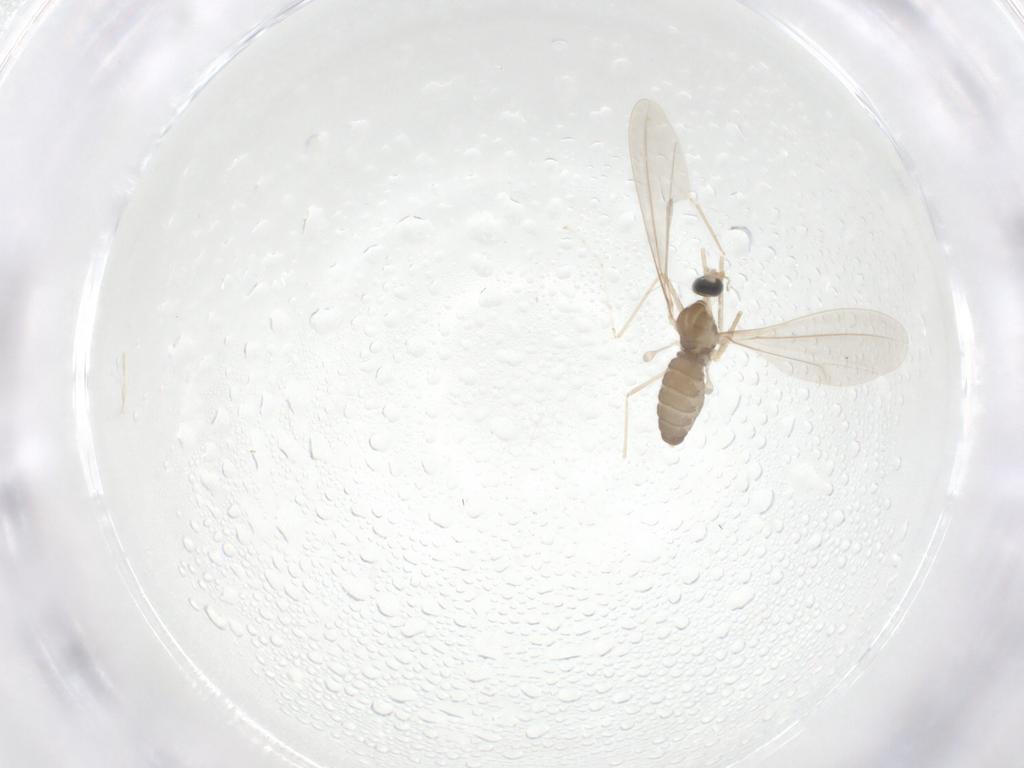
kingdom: Animalia
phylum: Arthropoda
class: Insecta
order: Diptera
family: Cecidomyiidae
